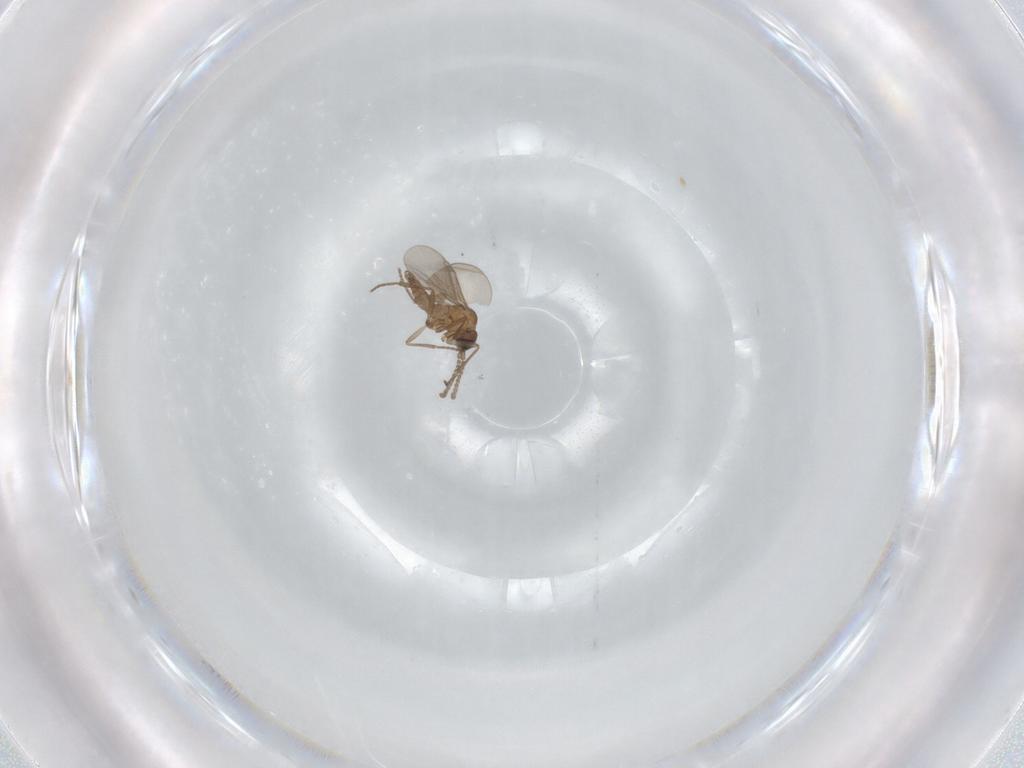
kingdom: Animalia
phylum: Arthropoda
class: Insecta
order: Diptera
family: Cecidomyiidae
